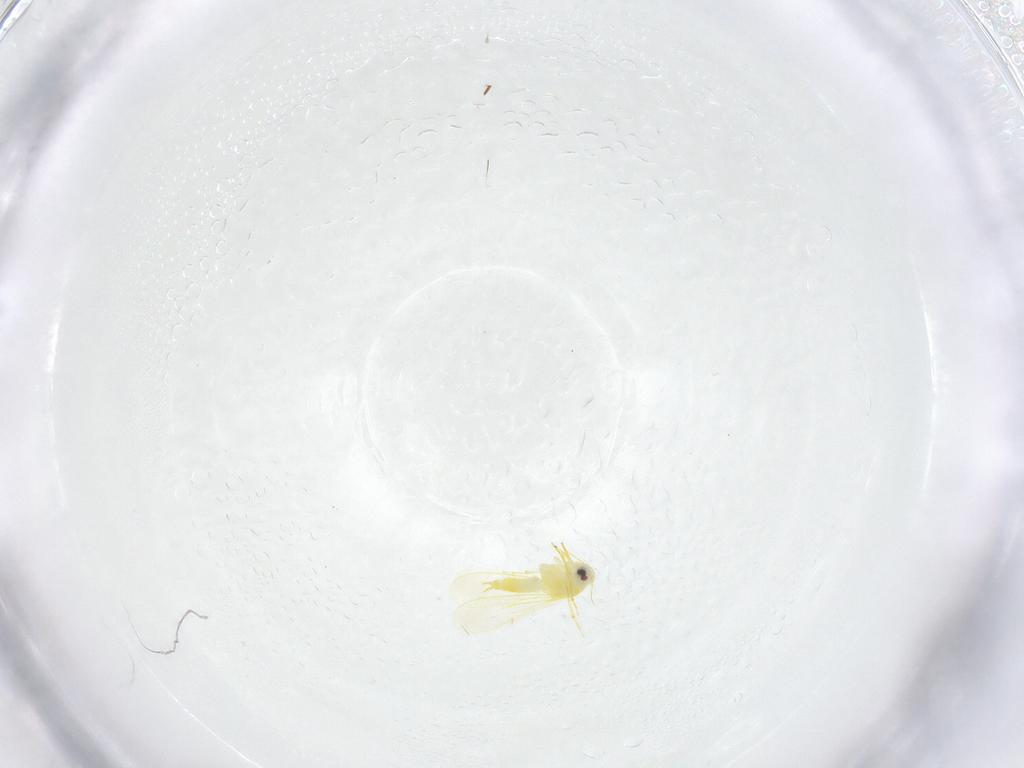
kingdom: Animalia
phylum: Arthropoda
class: Insecta
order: Hemiptera
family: Aleyrodidae
